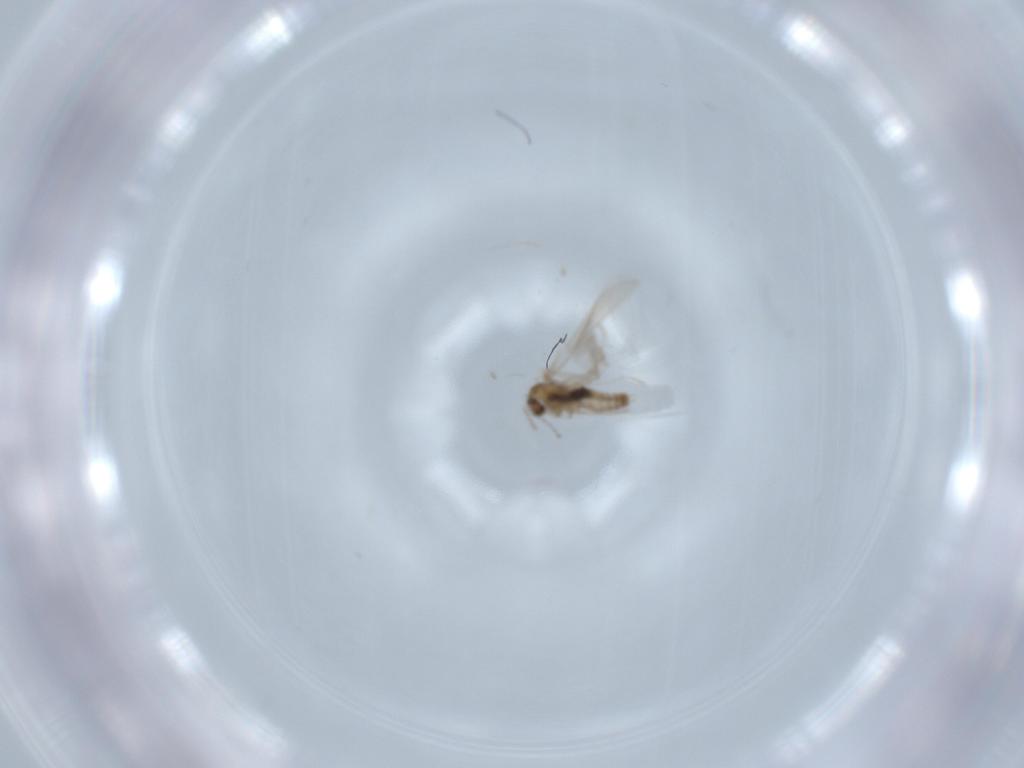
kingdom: Animalia
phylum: Arthropoda
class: Insecta
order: Diptera
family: Cecidomyiidae
